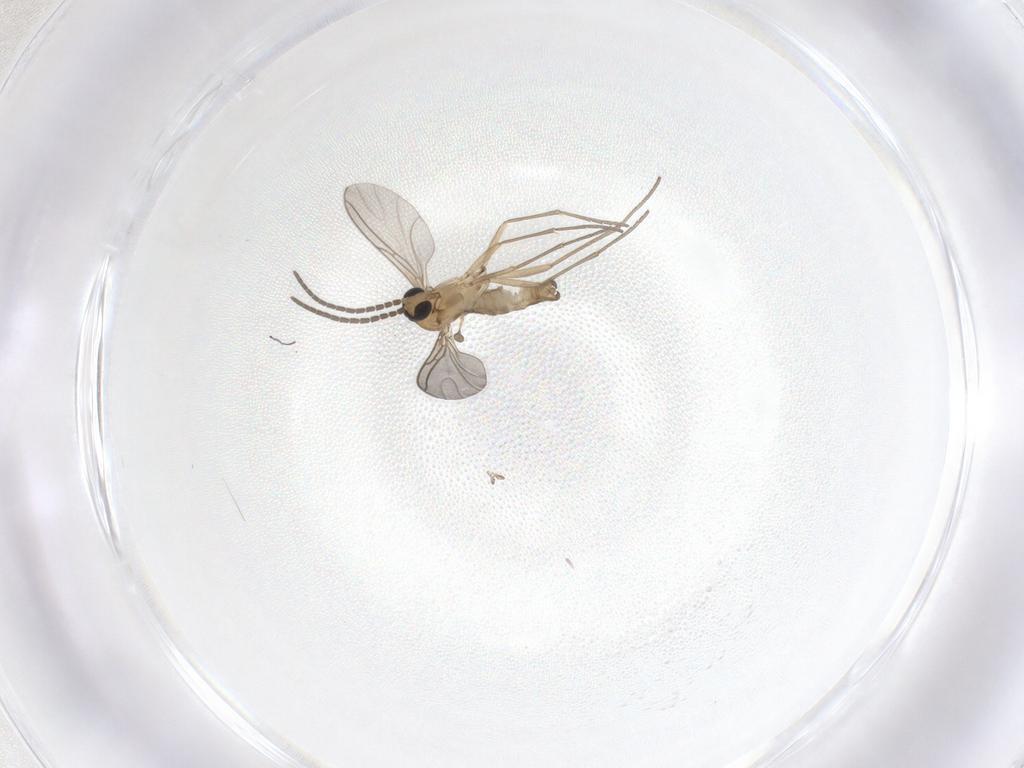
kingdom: Animalia
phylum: Arthropoda
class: Insecta
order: Diptera
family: Sciaridae
